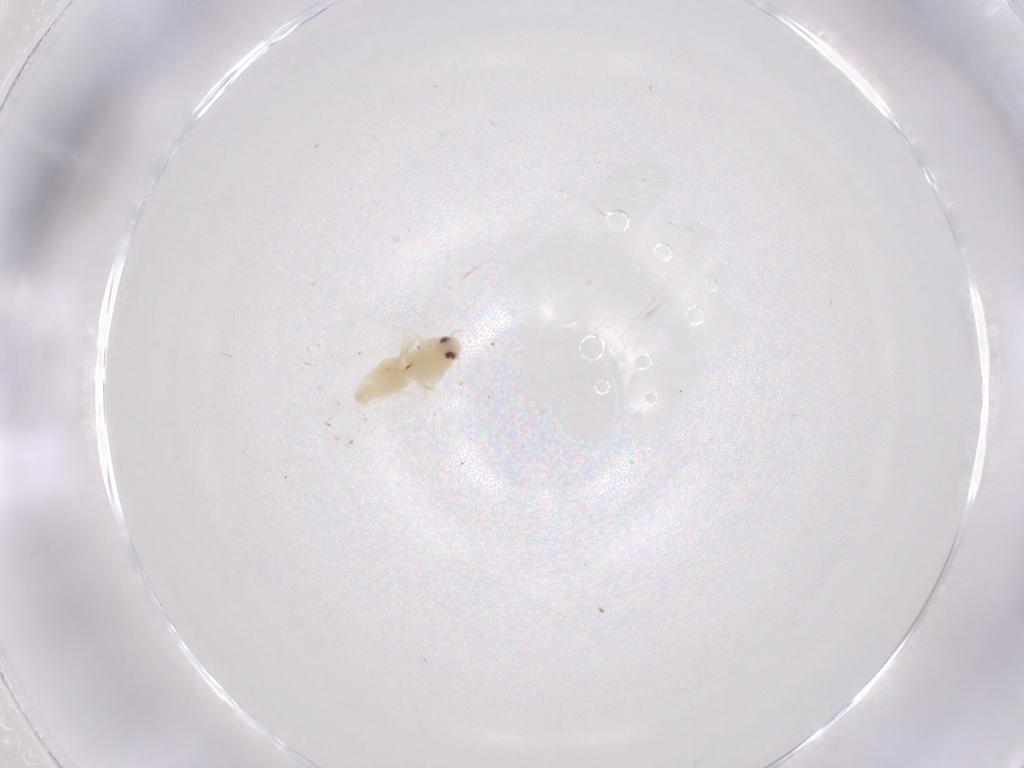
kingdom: Animalia
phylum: Arthropoda
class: Insecta
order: Hemiptera
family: Aleyrodidae
